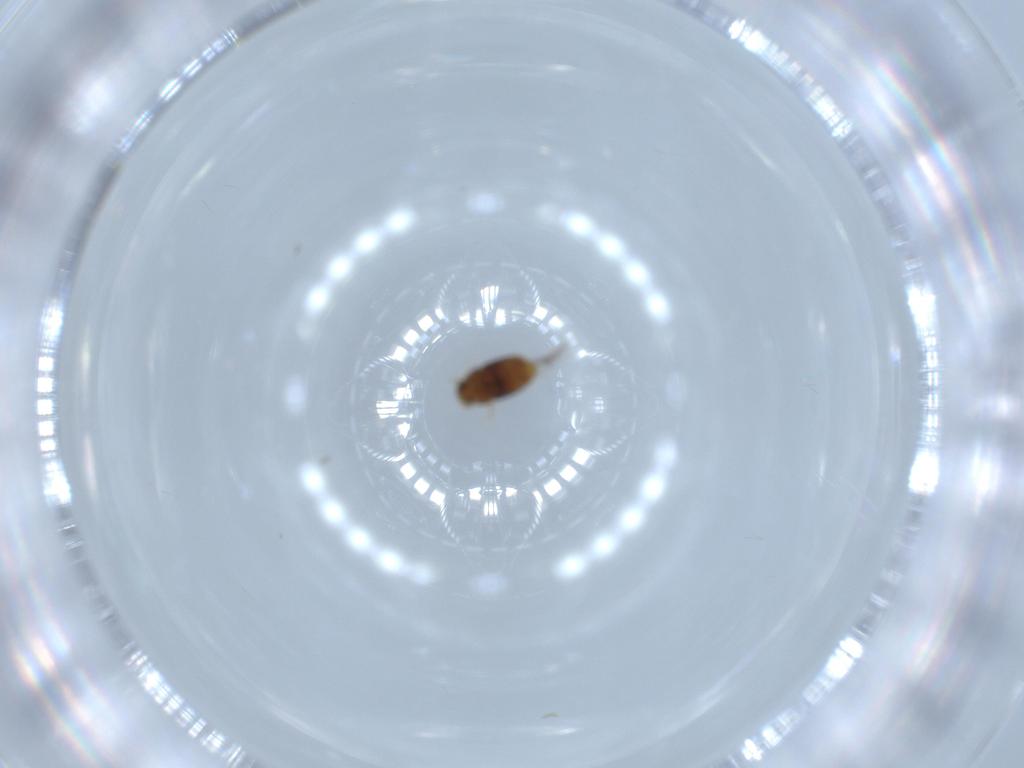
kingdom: Animalia
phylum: Arthropoda
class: Insecta
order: Coleoptera
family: Ptiliidae
